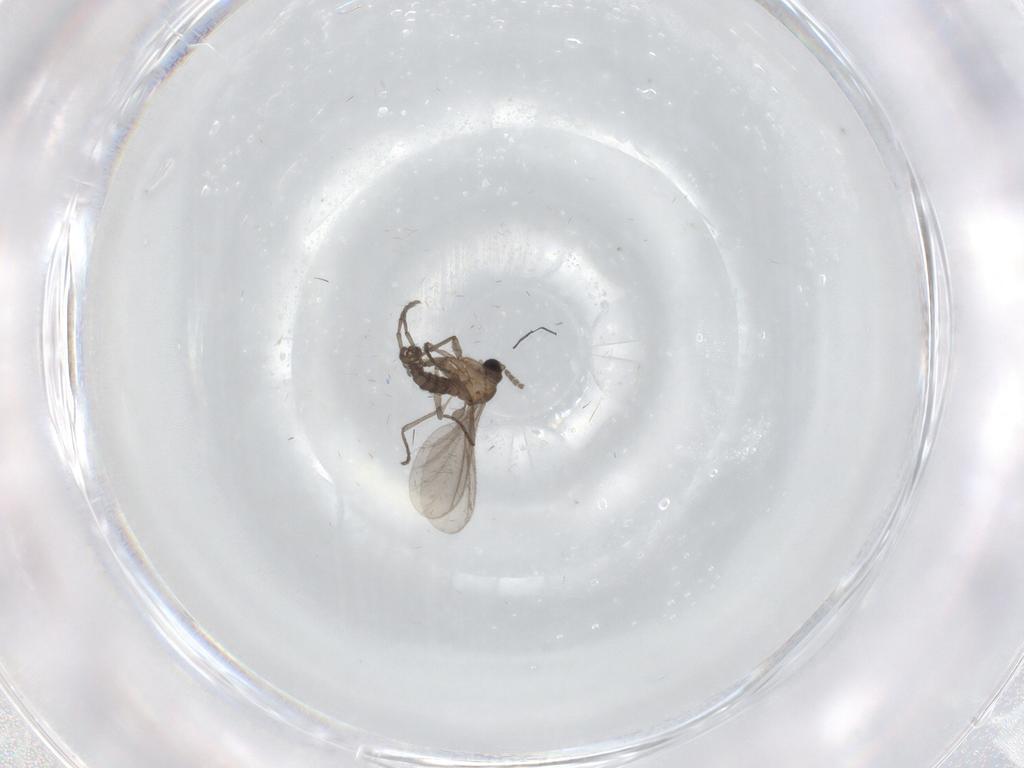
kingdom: Animalia
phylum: Arthropoda
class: Insecta
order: Diptera
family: Sciaridae
